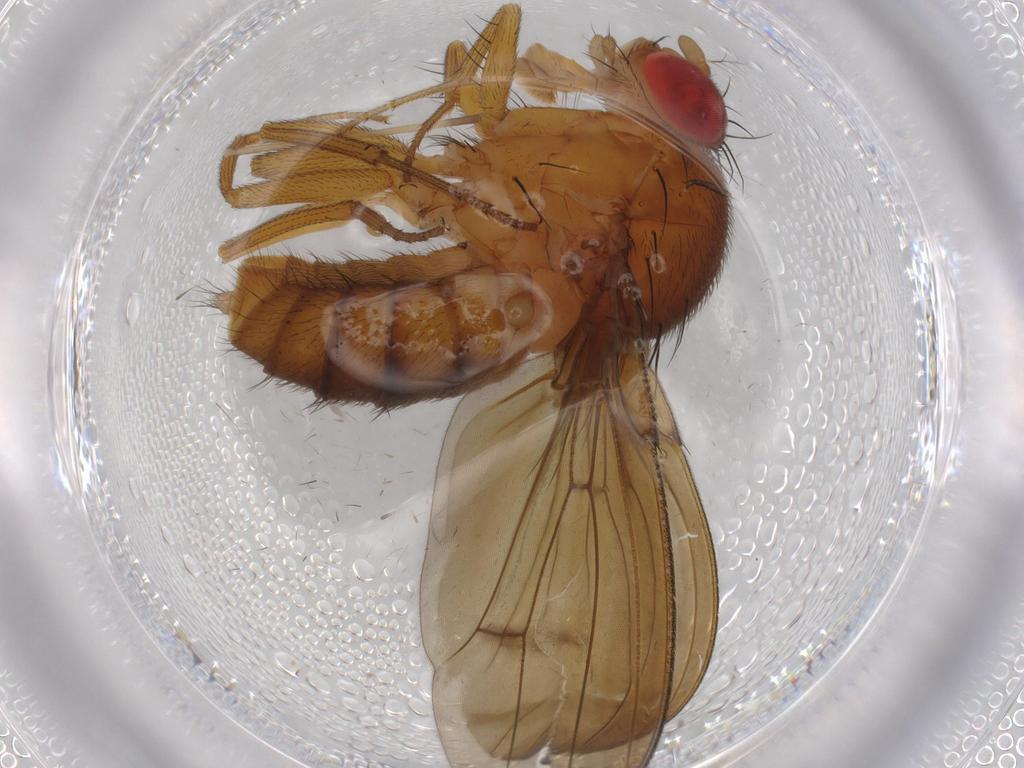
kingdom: Animalia
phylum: Arthropoda
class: Insecta
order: Diptera
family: Drosophilidae
